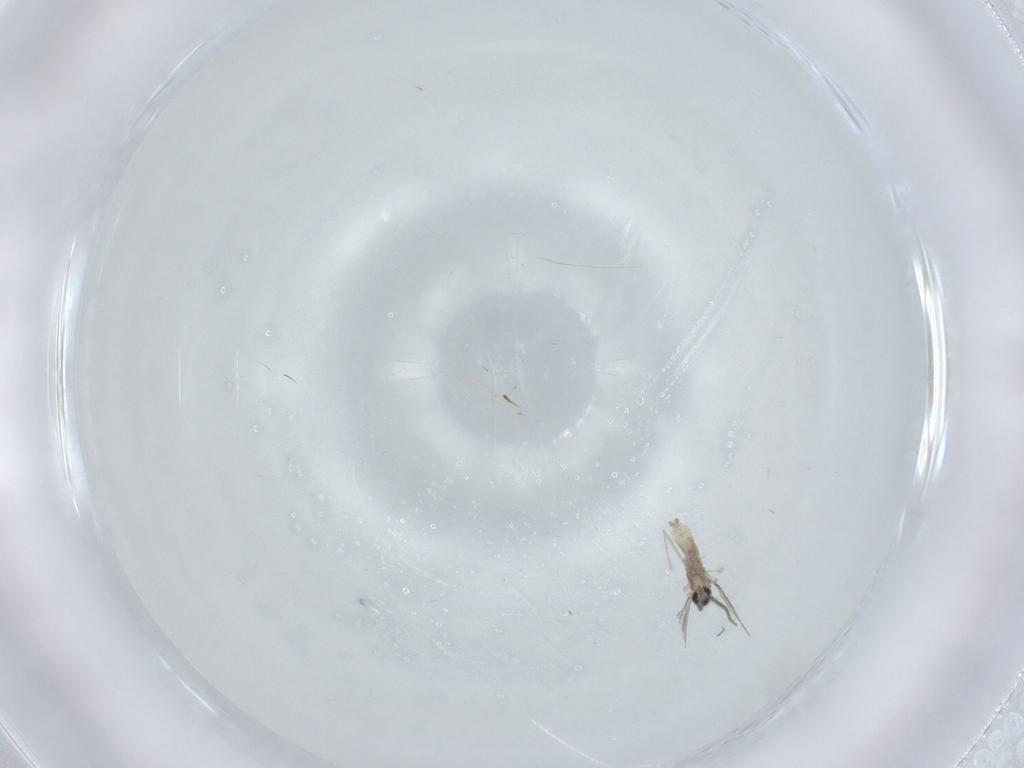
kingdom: Animalia
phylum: Arthropoda
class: Insecta
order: Diptera
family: Cecidomyiidae
